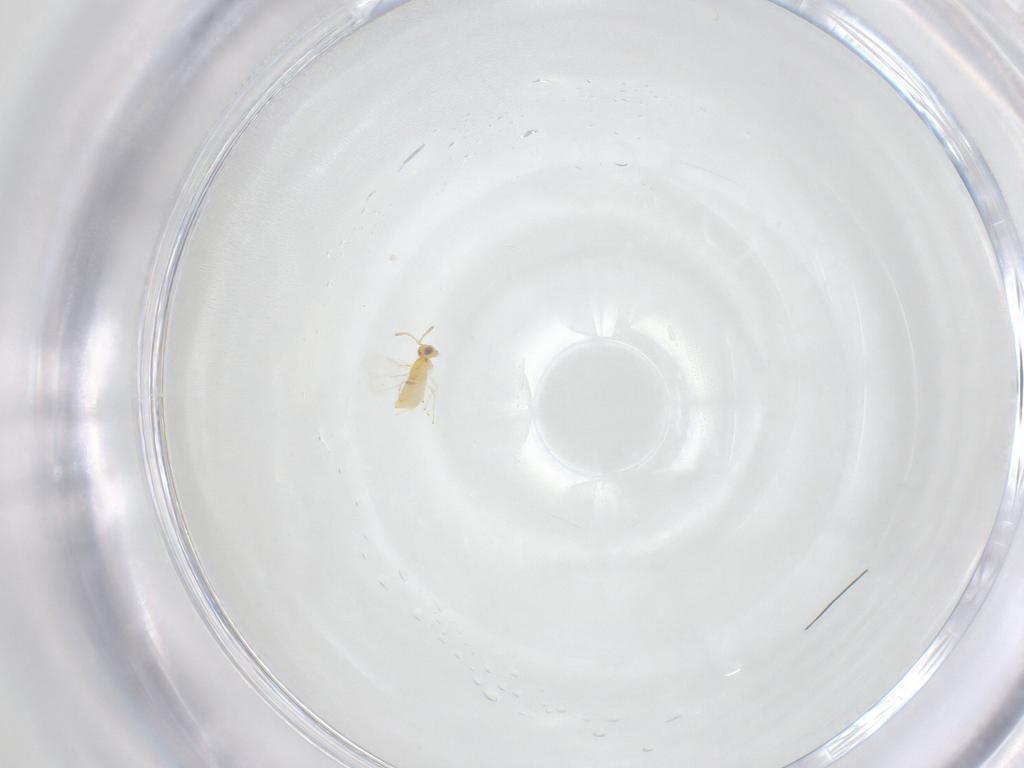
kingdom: Animalia
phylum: Arthropoda
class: Insecta
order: Hymenoptera
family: Aphelinidae
